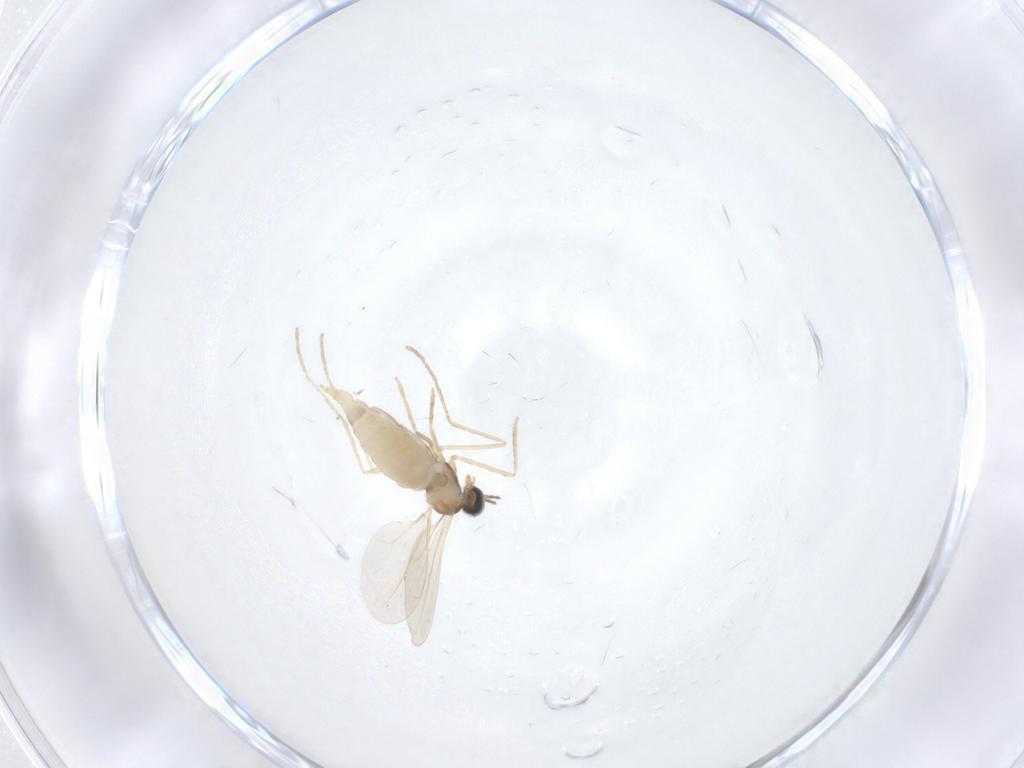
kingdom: Animalia
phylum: Arthropoda
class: Insecta
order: Diptera
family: Cecidomyiidae
